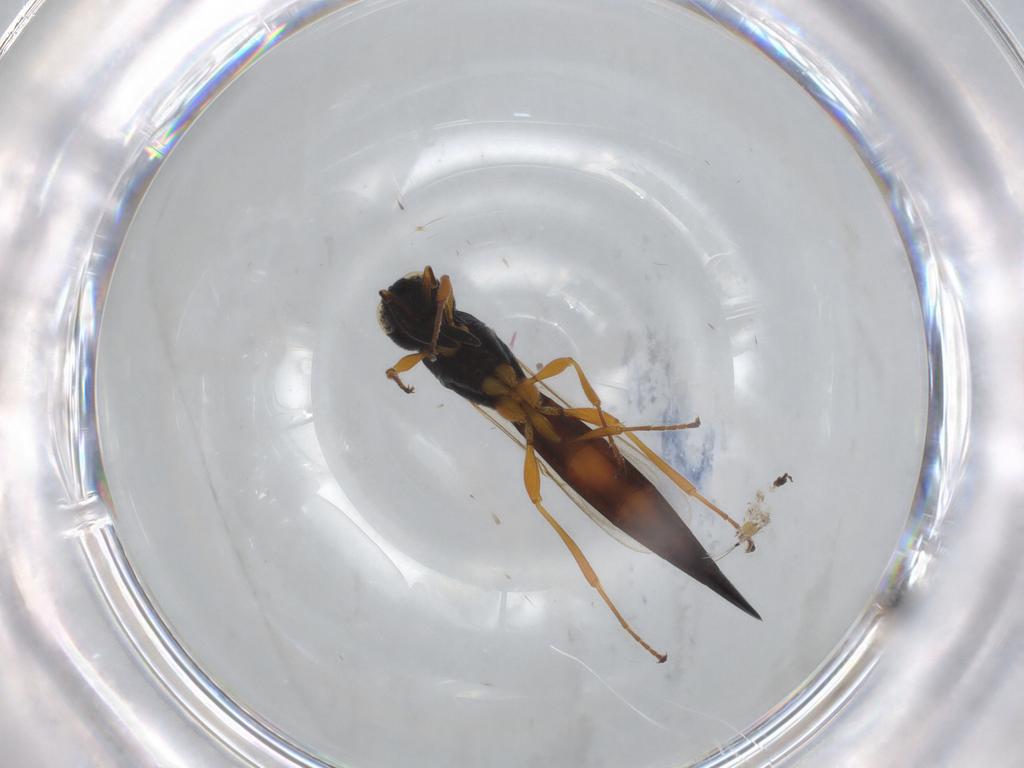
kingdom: Animalia
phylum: Arthropoda
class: Insecta
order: Hymenoptera
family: Scelionidae
